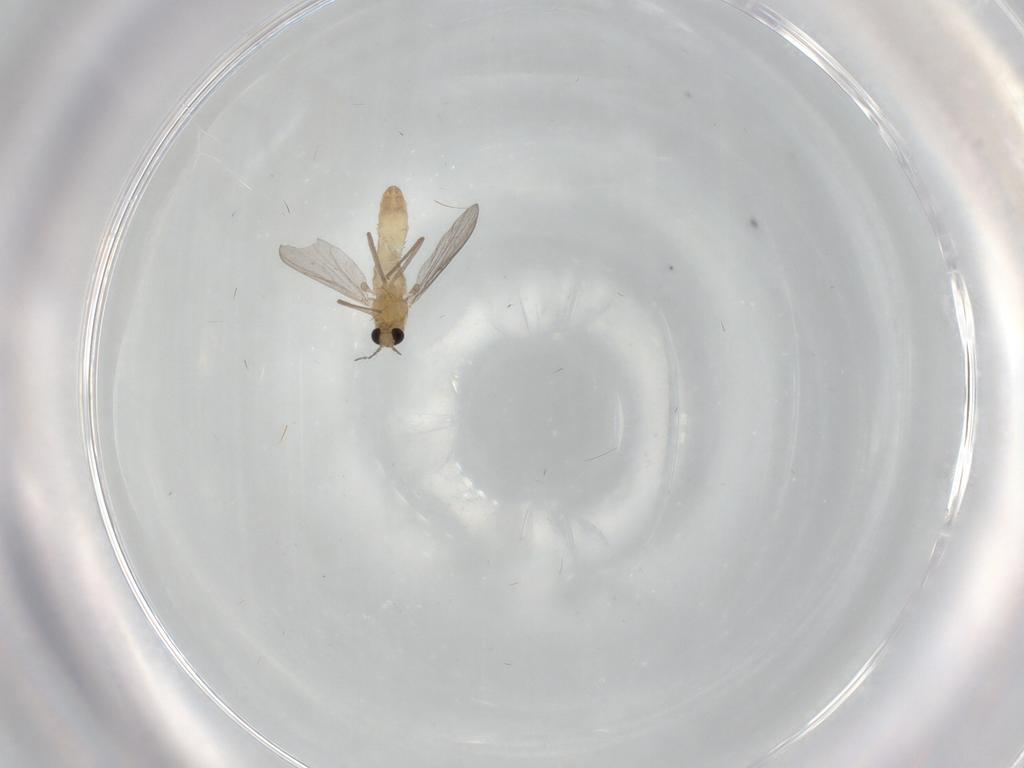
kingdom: Animalia
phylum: Arthropoda
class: Insecta
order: Diptera
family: Chironomidae
